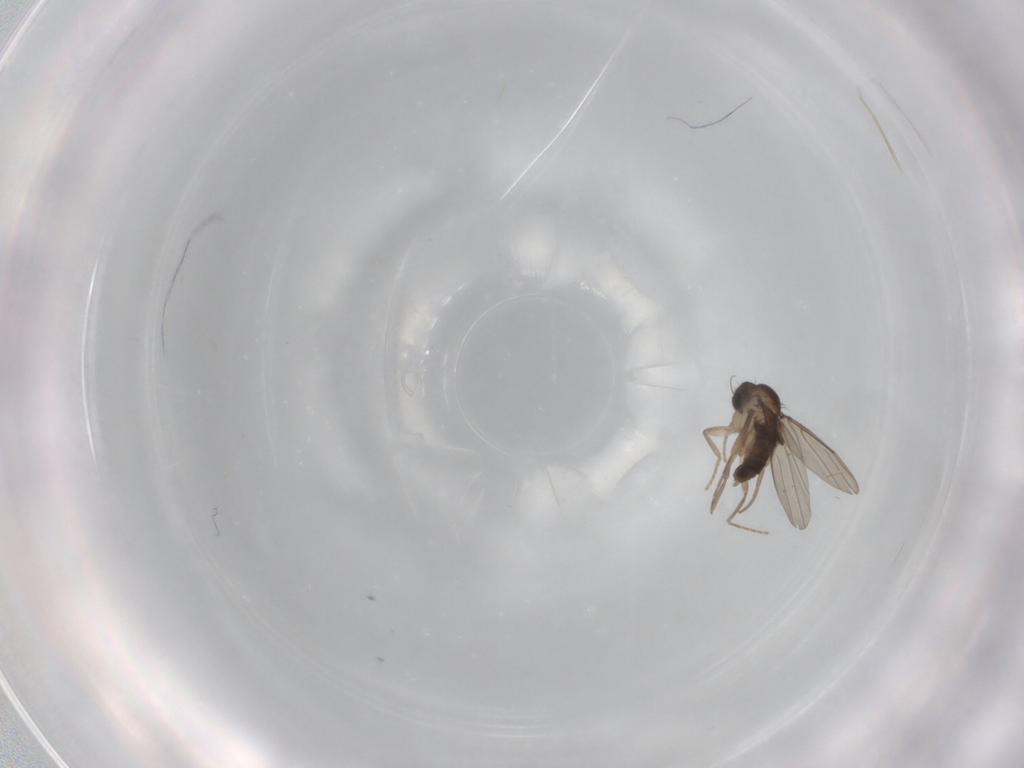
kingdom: Animalia
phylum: Arthropoda
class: Insecta
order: Diptera
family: Phoridae
